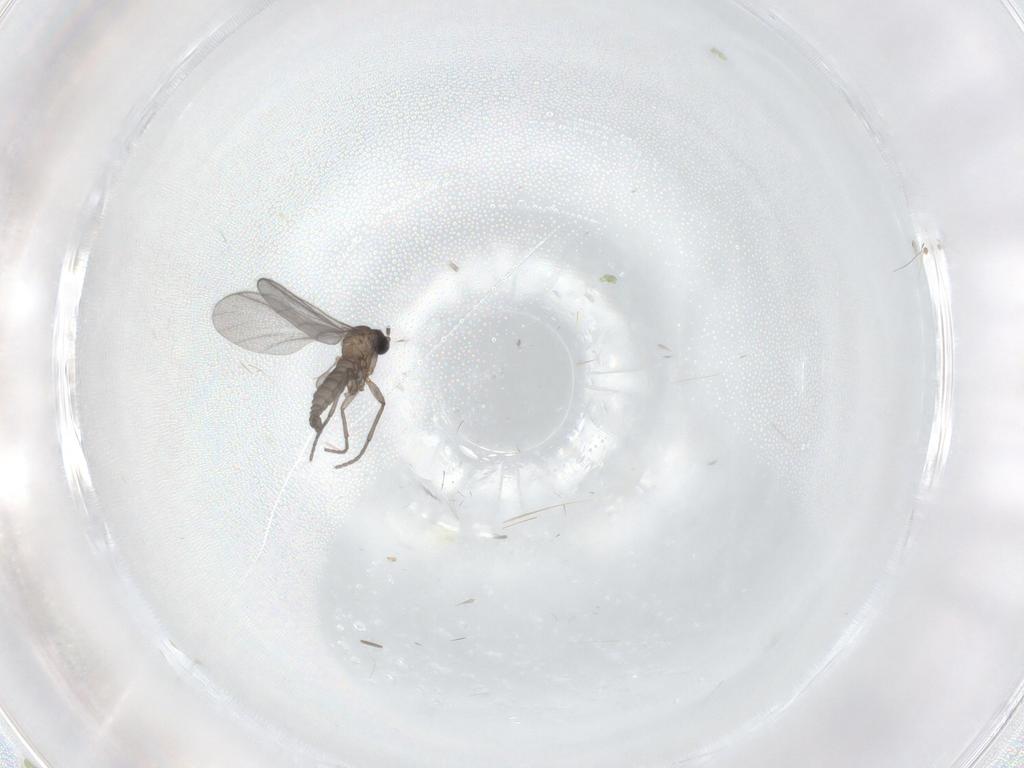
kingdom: Animalia
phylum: Arthropoda
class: Insecta
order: Diptera
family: Sciaridae
